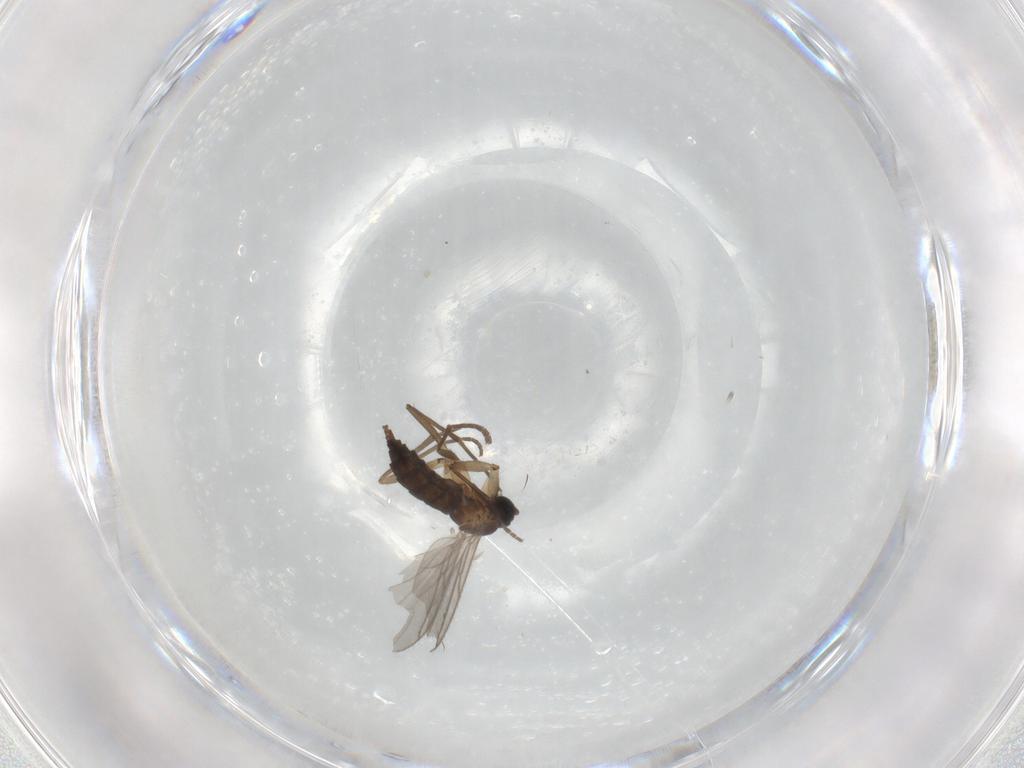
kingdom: Animalia
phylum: Arthropoda
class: Insecta
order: Diptera
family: Sciaridae
